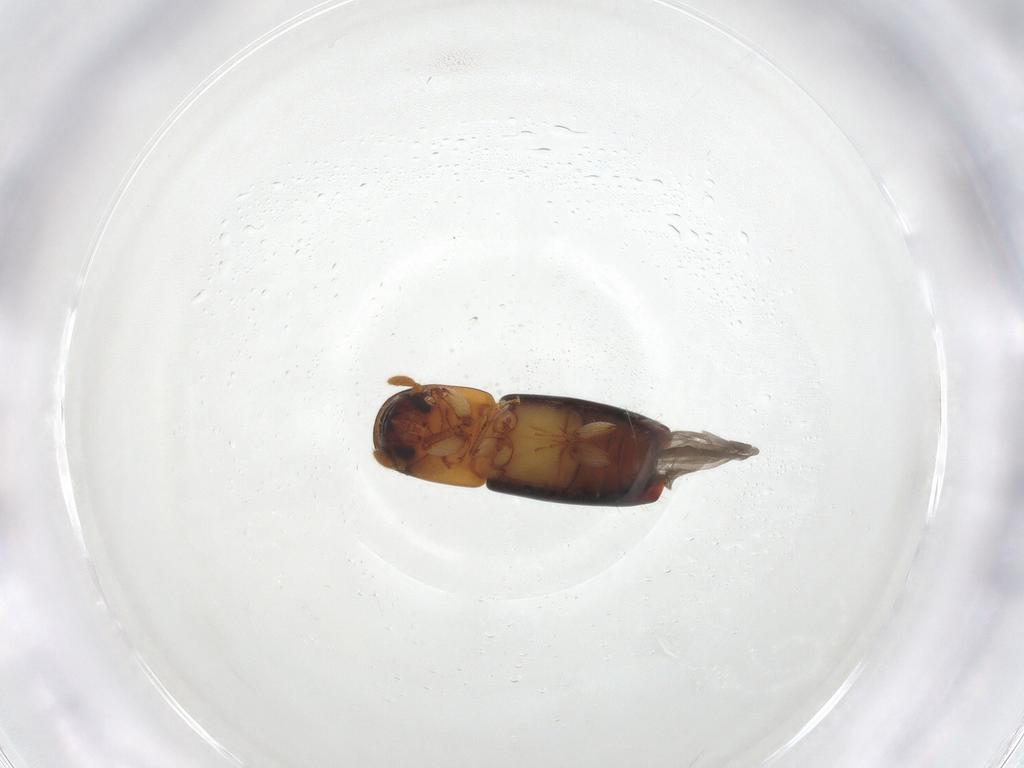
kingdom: Animalia
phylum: Arthropoda
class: Insecta
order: Coleoptera
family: Curculionidae
